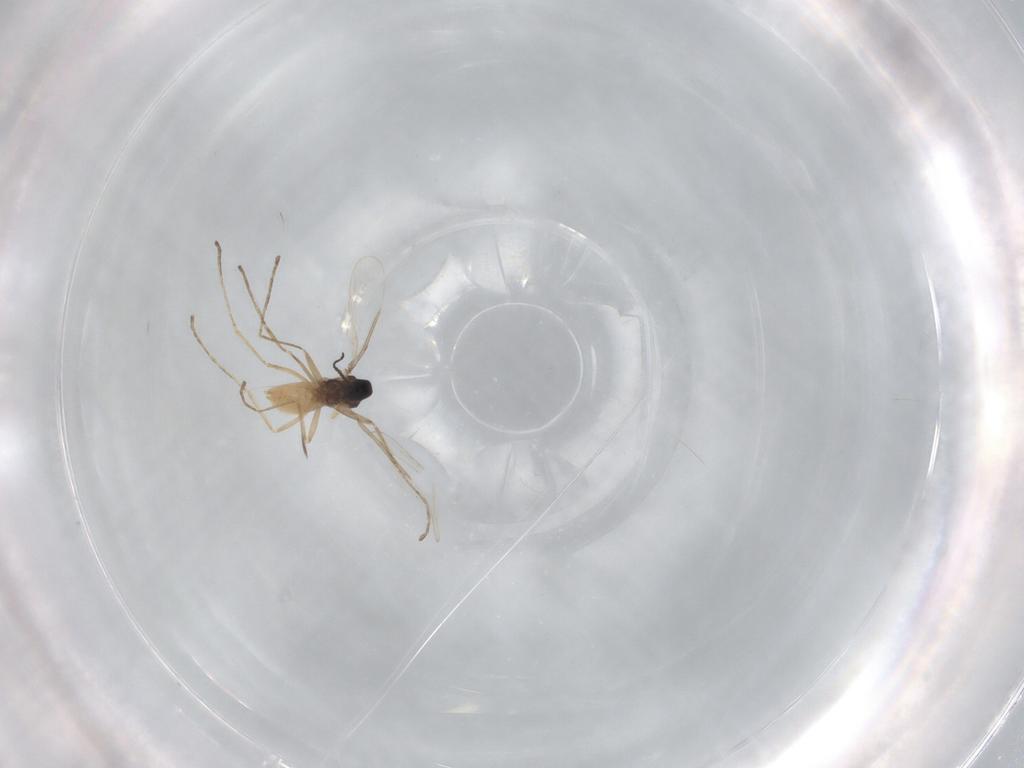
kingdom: Animalia
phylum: Arthropoda
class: Insecta
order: Diptera
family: Cecidomyiidae
